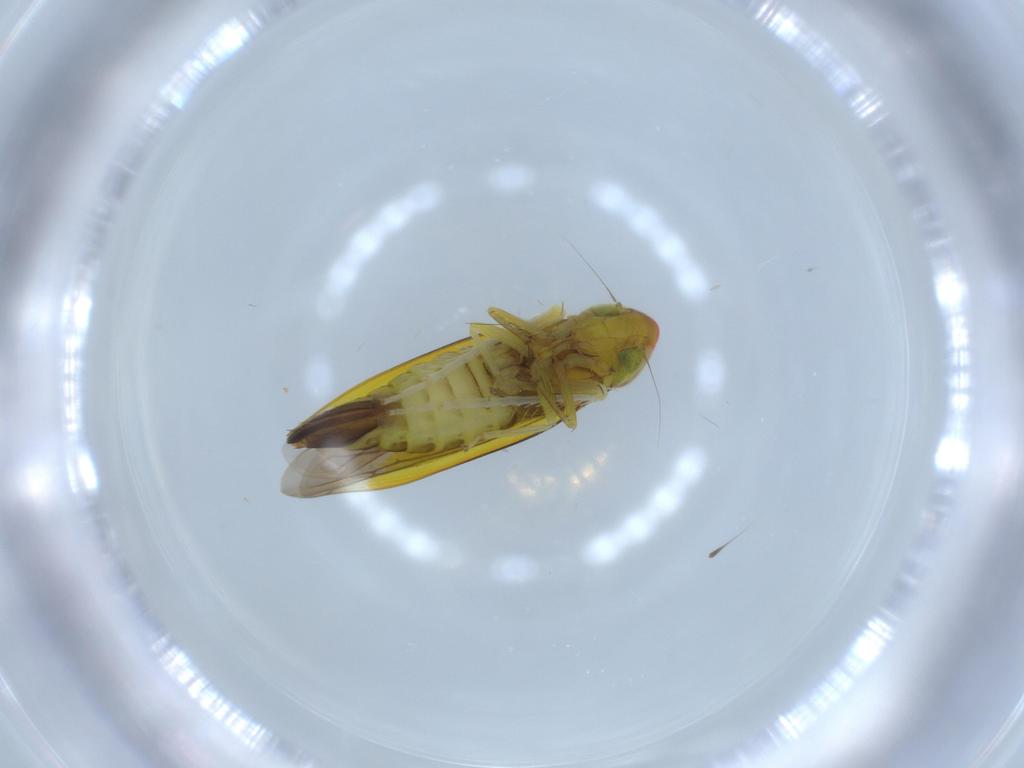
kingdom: Animalia
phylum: Arthropoda
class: Insecta
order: Hemiptera
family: Cicadellidae
